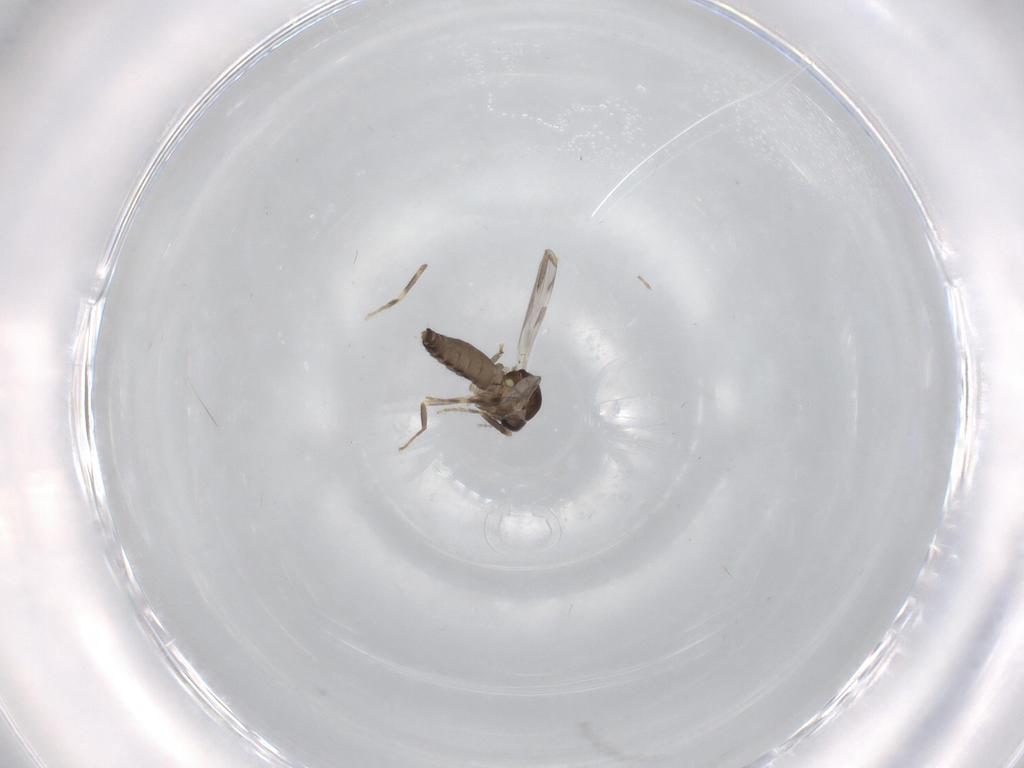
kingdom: Animalia
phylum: Arthropoda
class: Insecta
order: Diptera
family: Ceratopogonidae
